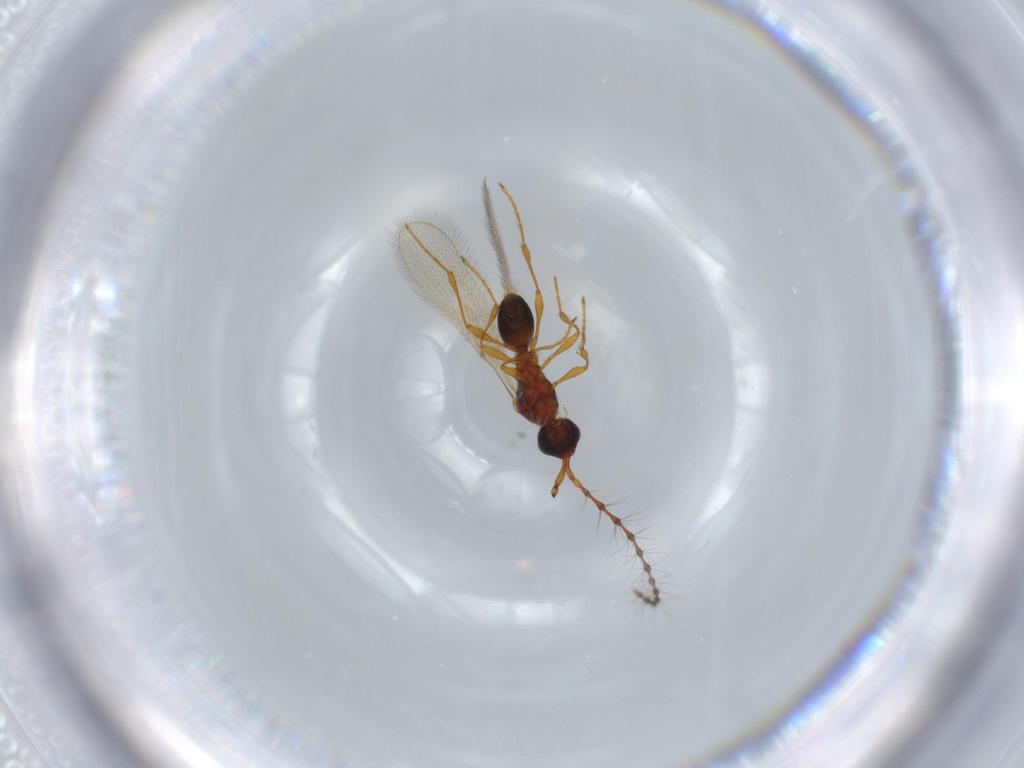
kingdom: Animalia
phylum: Arthropoda
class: Insecta
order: Hymenoptera
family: Diapriidae
